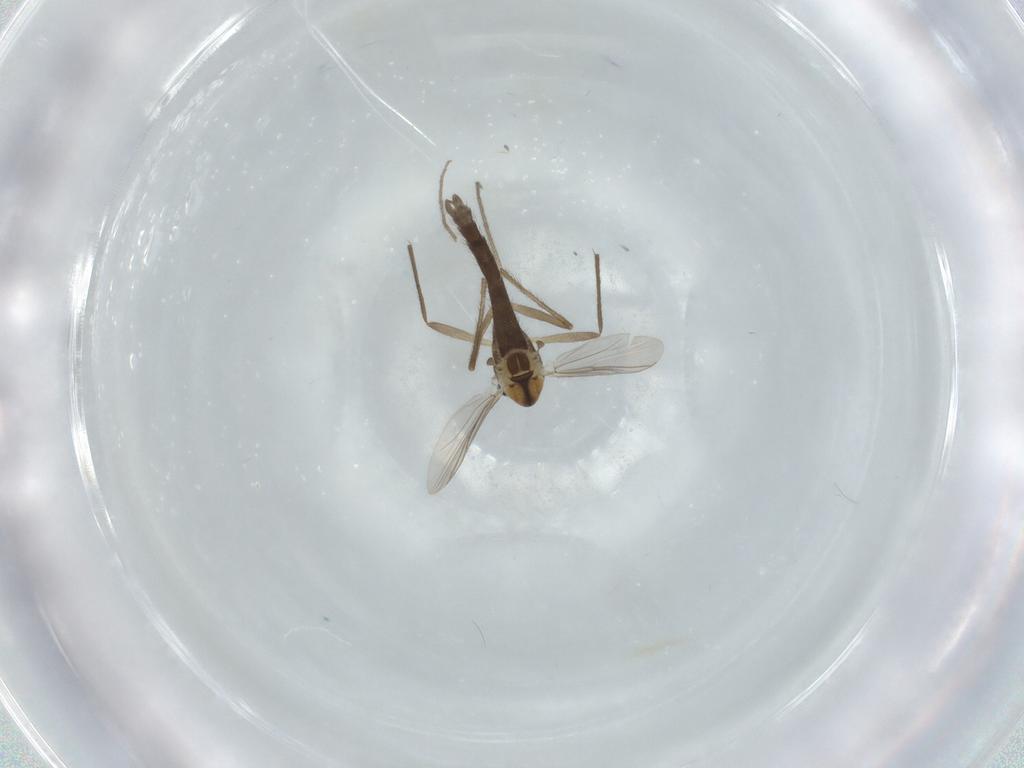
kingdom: Animalia
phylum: Arthropoda
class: Insecta
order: Diptera
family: Chironomidae
